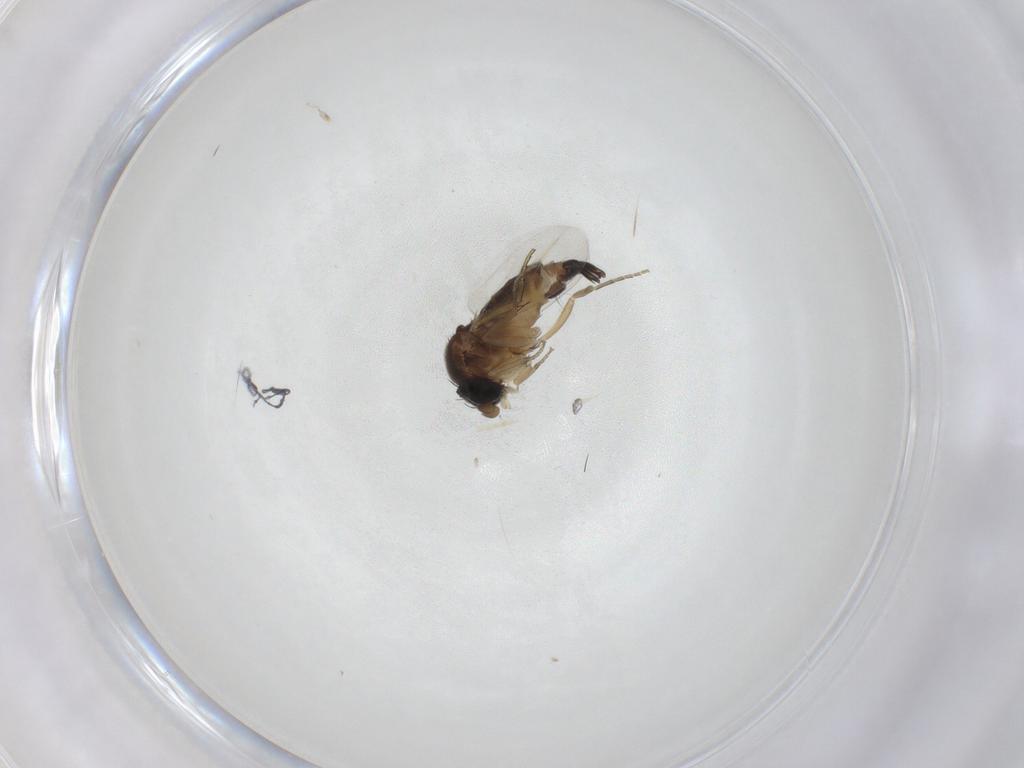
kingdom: Animalia
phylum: Arthropoda
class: Insecta
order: Diptera
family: Phoridae
